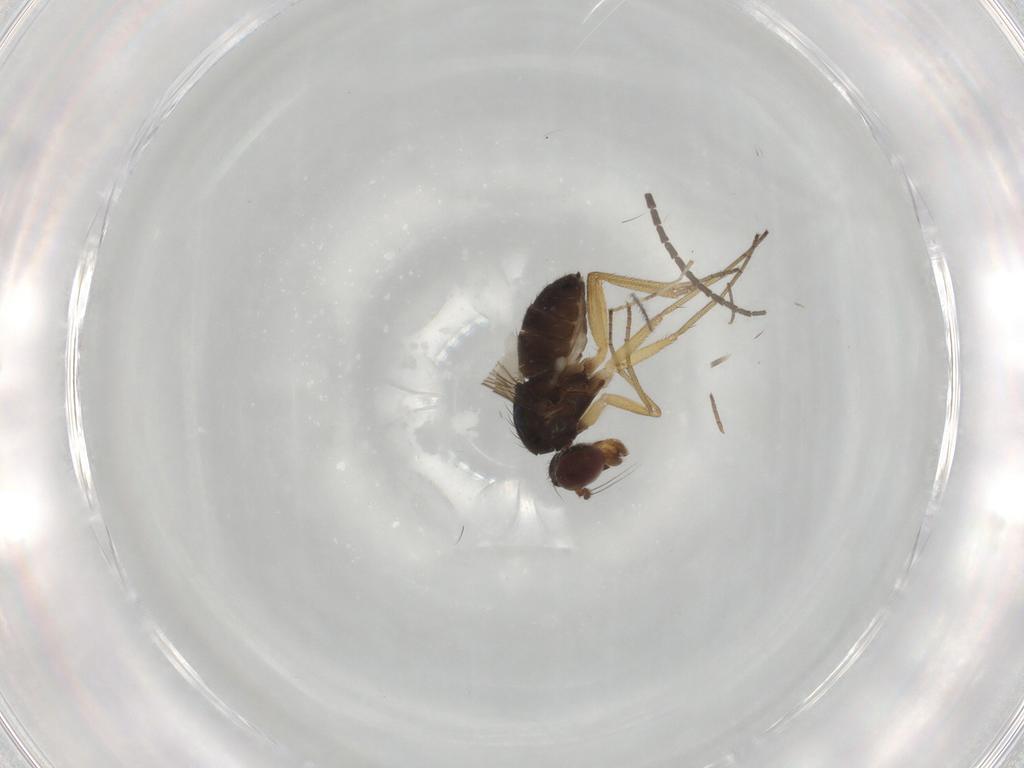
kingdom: Animalia
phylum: Arthropoda
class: Insecta
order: Diptera
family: Dolichopodidae
